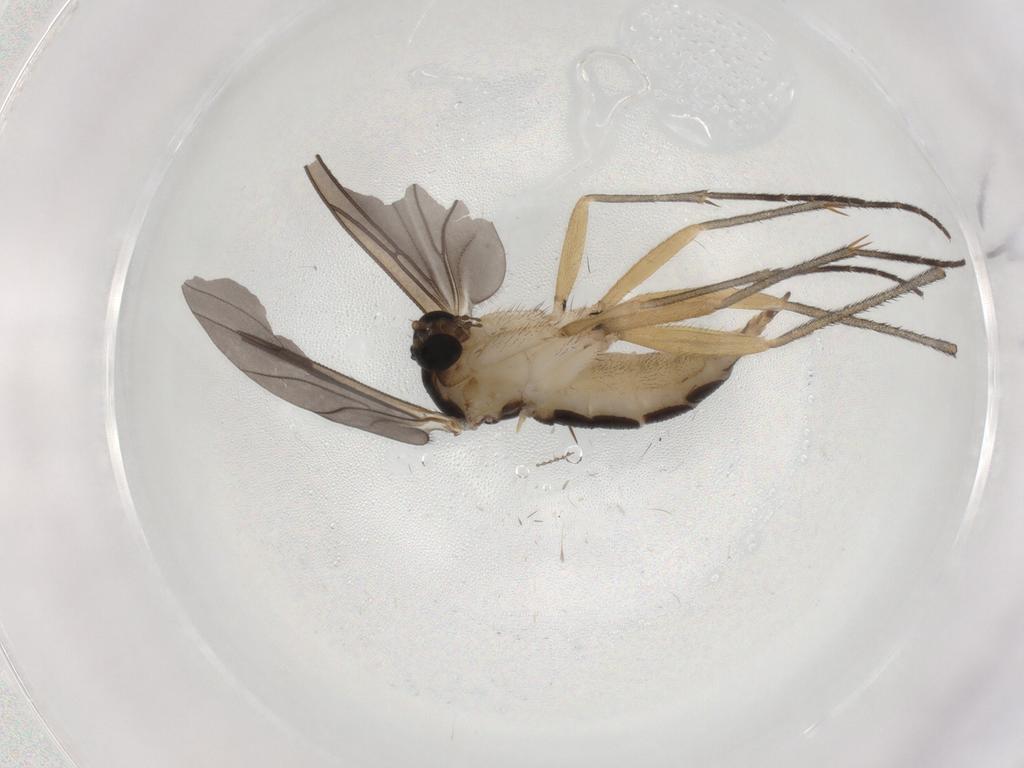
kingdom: Animalia
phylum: Arthropoda
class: Insecta
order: Diptera
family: Sciaridae
